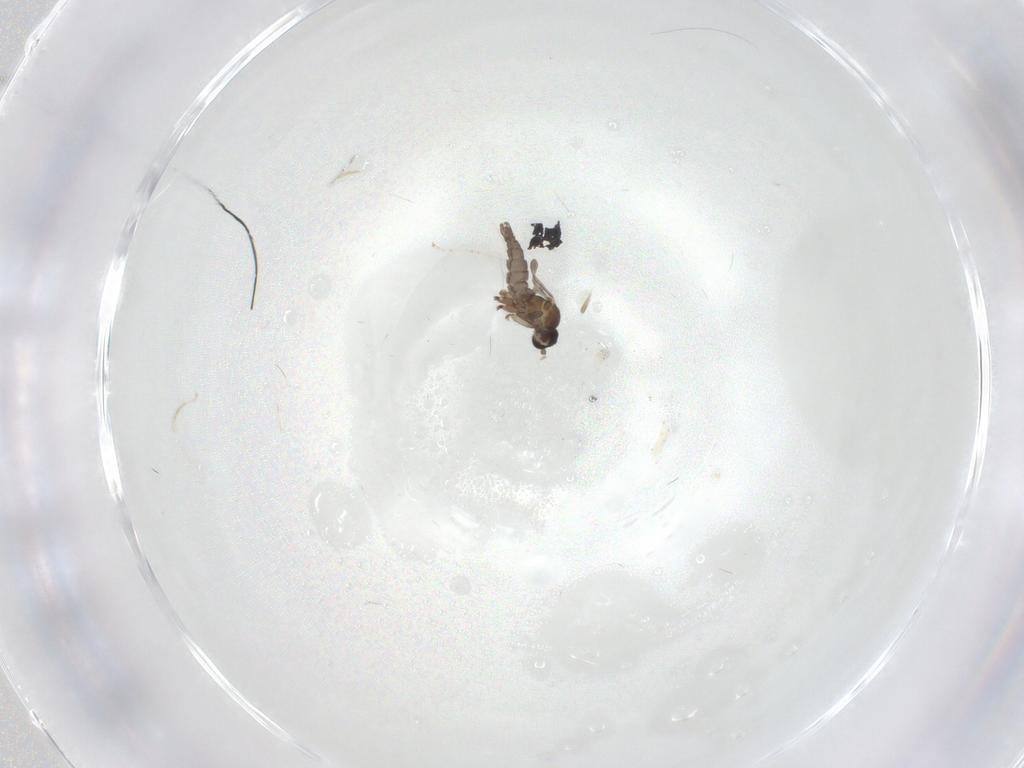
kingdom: Animalia
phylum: Arthropoda
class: Insecta
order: Diptera
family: Cecidomyiidae
